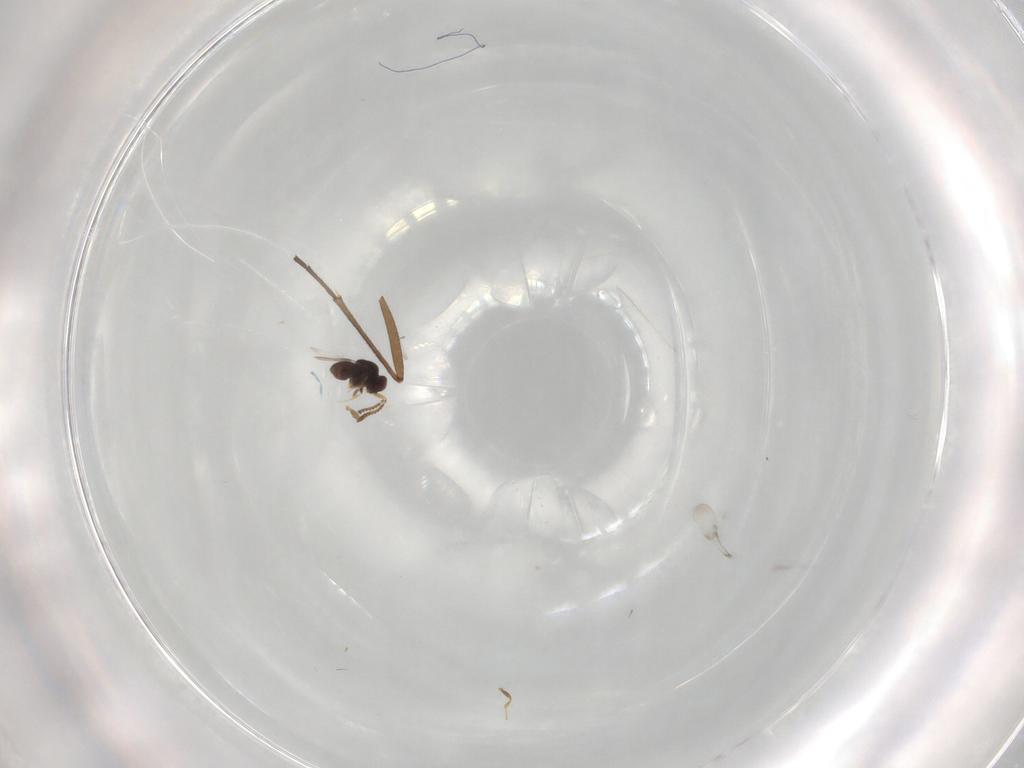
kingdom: Animalia
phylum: Arthropoda
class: Insecta
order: Hymenoptera
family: Ceraphronidae
